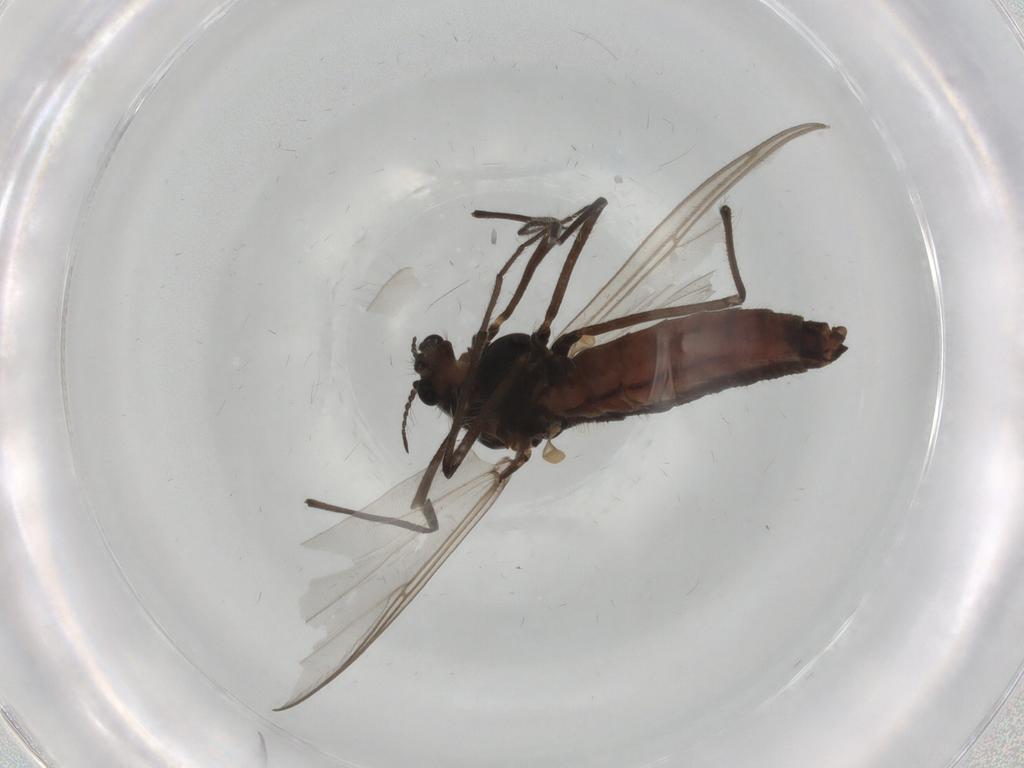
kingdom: Animalia
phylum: Arthropoda
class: Insecta
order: Diptera
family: Chironomidae
